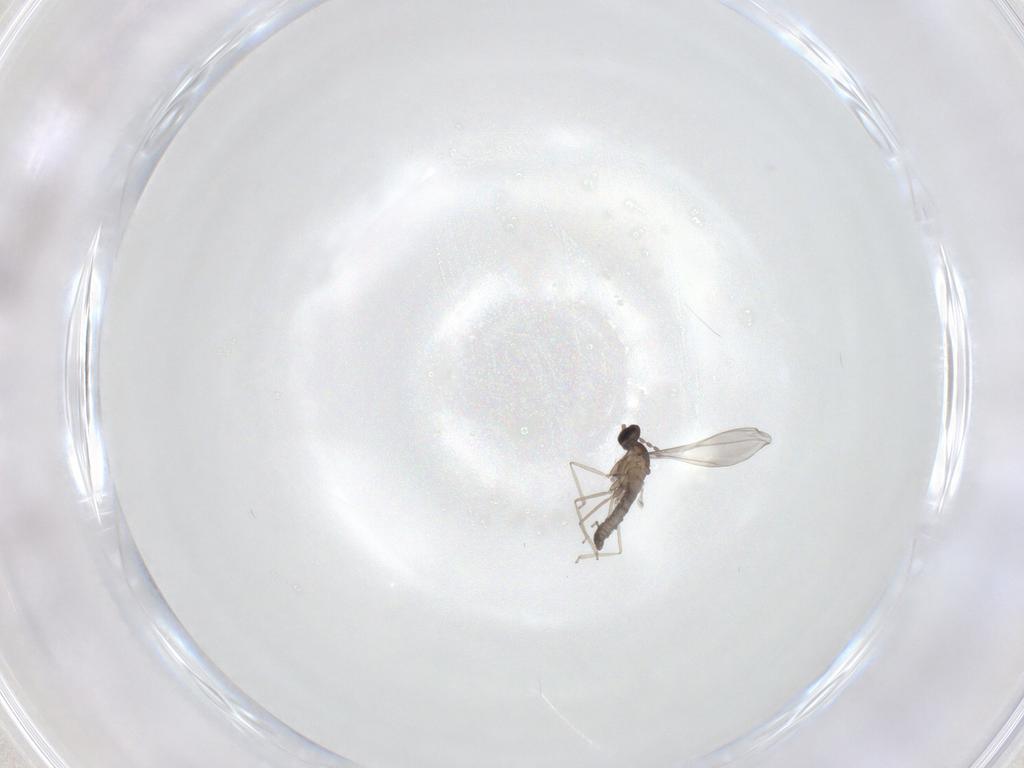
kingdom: Animalia
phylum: Arthropoda
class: Insecta
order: Diptera
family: Cecidomyiidae
